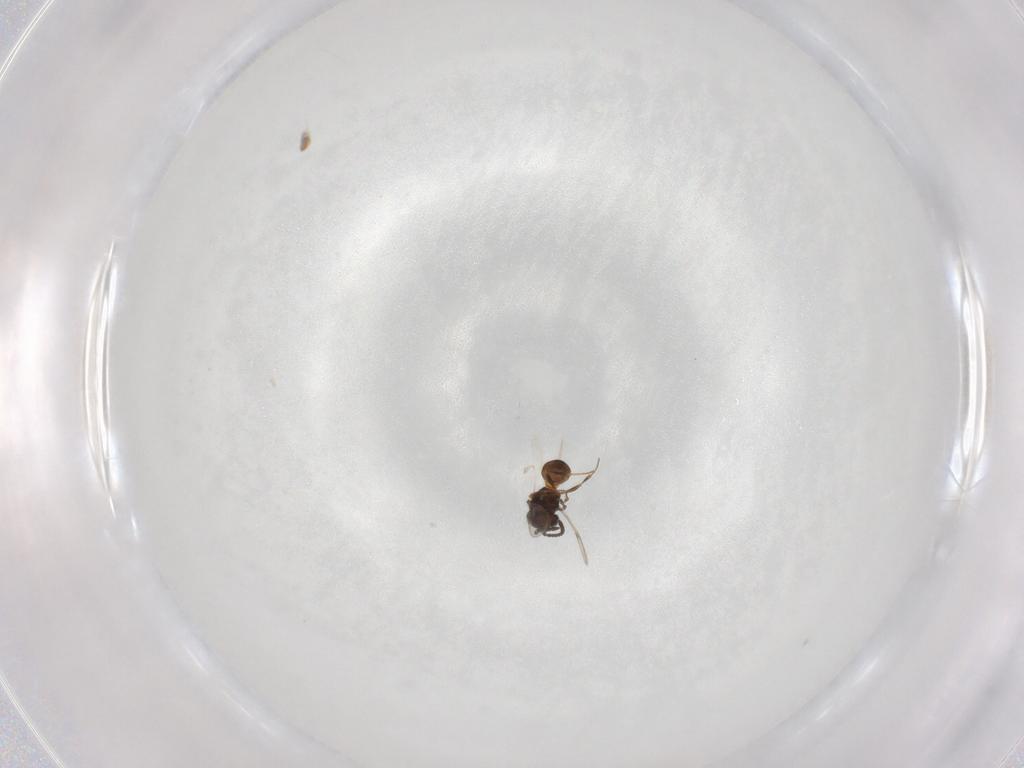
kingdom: Animalia
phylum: Arthropoda
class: Insecta
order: Hymenoptera
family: Scelionidae
